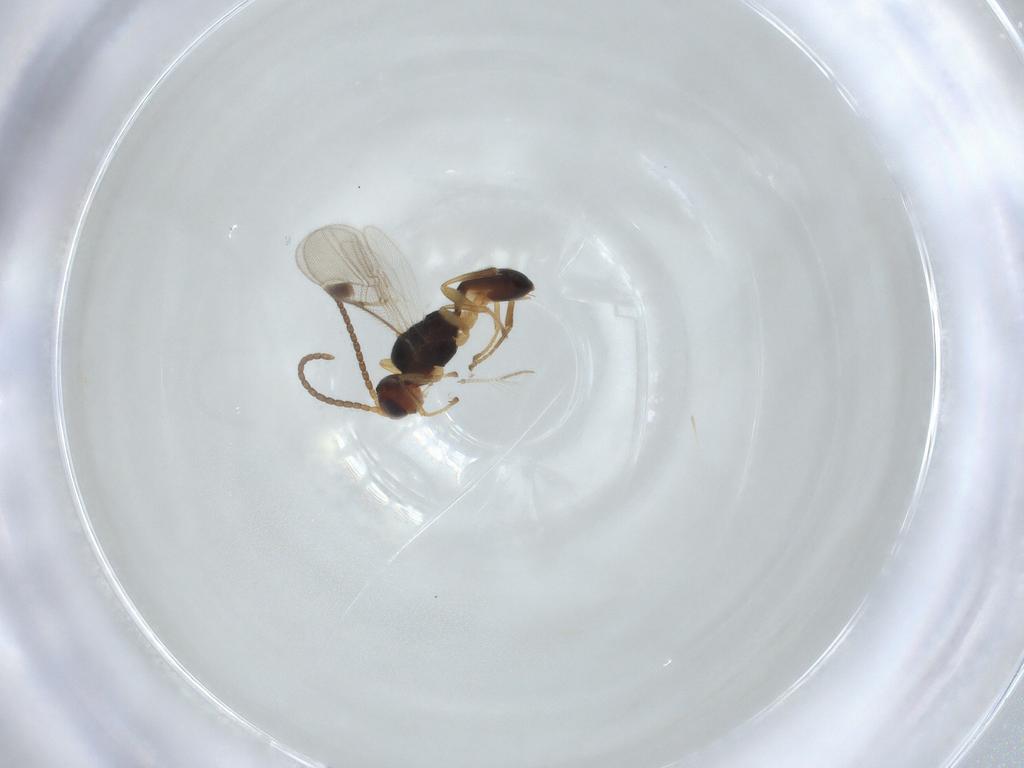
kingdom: Animalia
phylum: Arthropoda
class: Insecta
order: Hymenoptera
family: Braconidae
